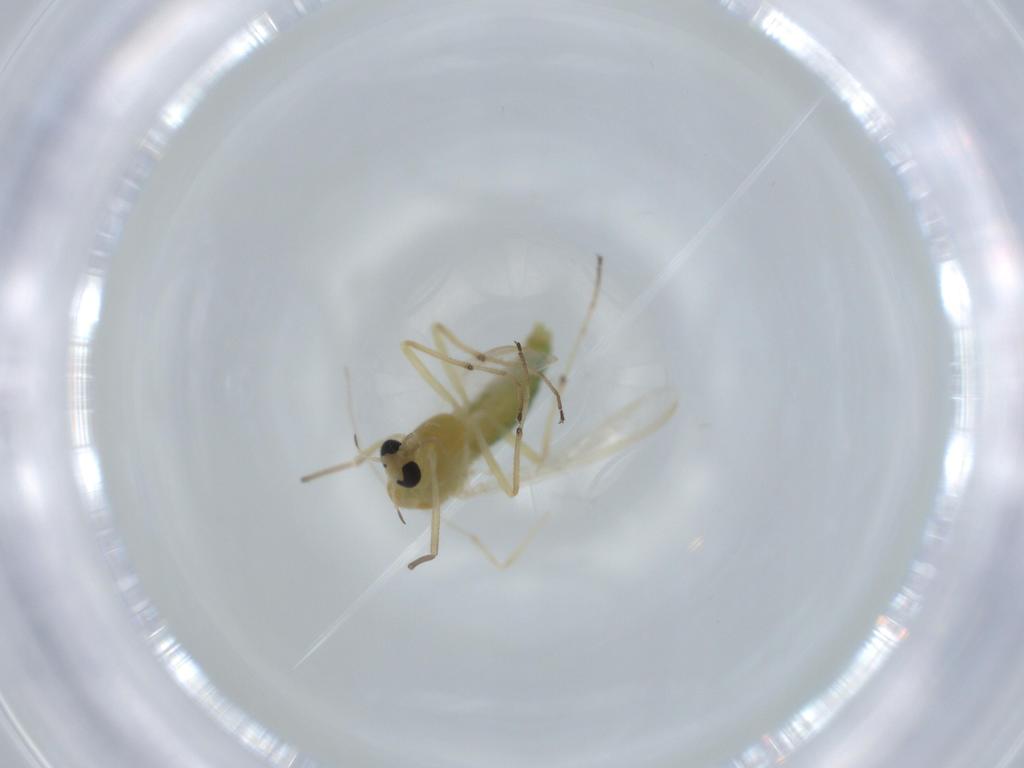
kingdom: Animalia
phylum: Arthropoda
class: Insecta
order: Diptera
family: Chironomidae
